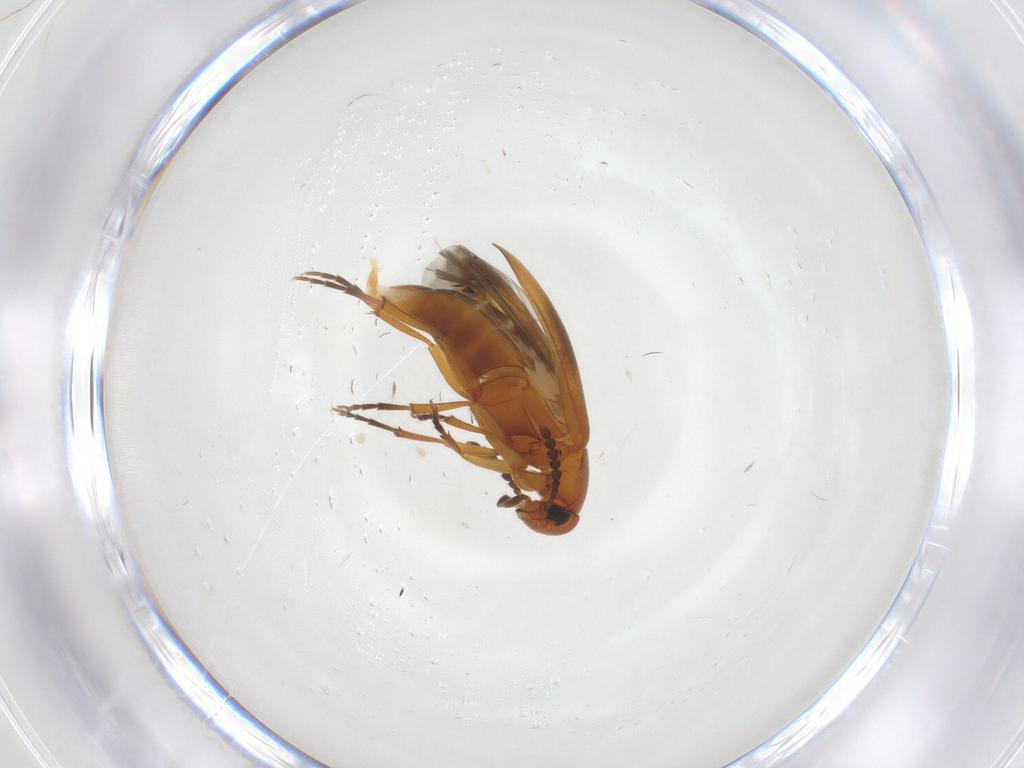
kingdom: Animalia
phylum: Arthropoda
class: Insecta
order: Coleoptera
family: Scraptiidae
